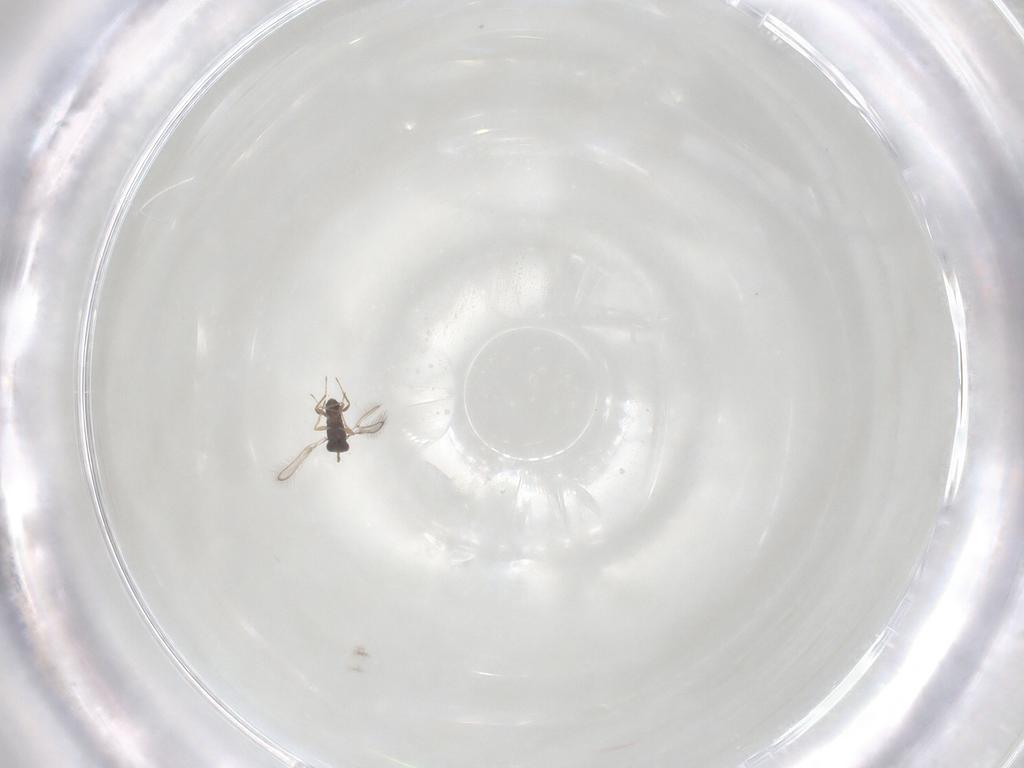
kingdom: Animalia
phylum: Arthropoda
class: Insecta
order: Hymenoptera
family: Mymaridae
